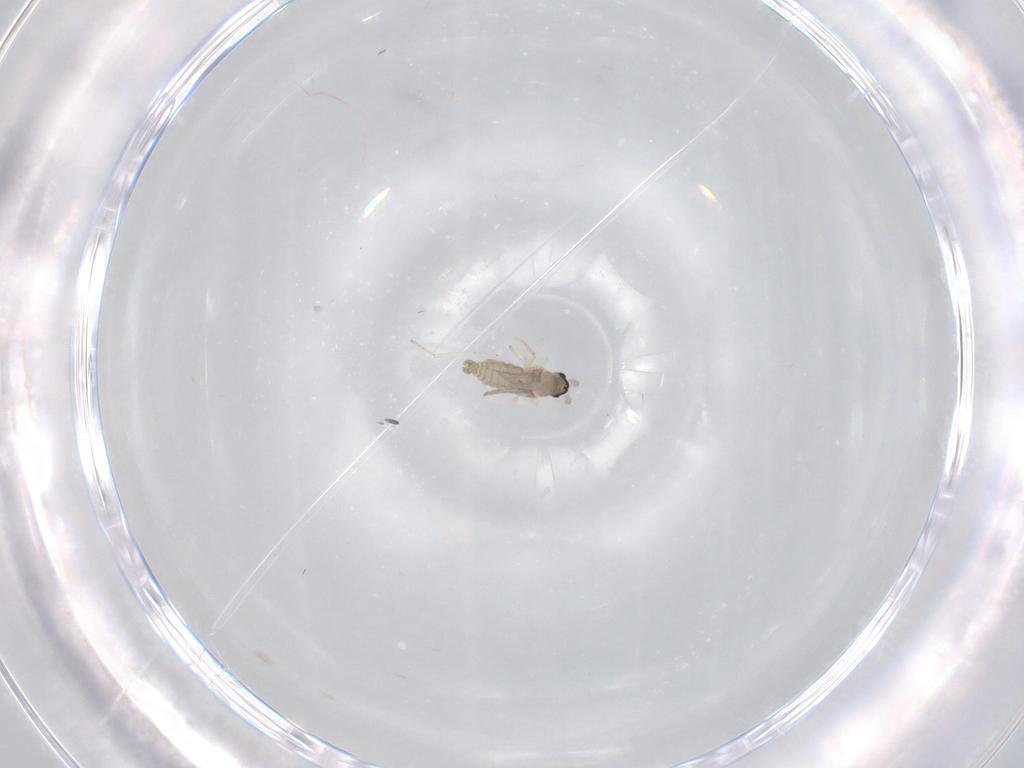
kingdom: Animalia
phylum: Arthropoda
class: Insecta
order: Diptera
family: Cecidomyiidae
